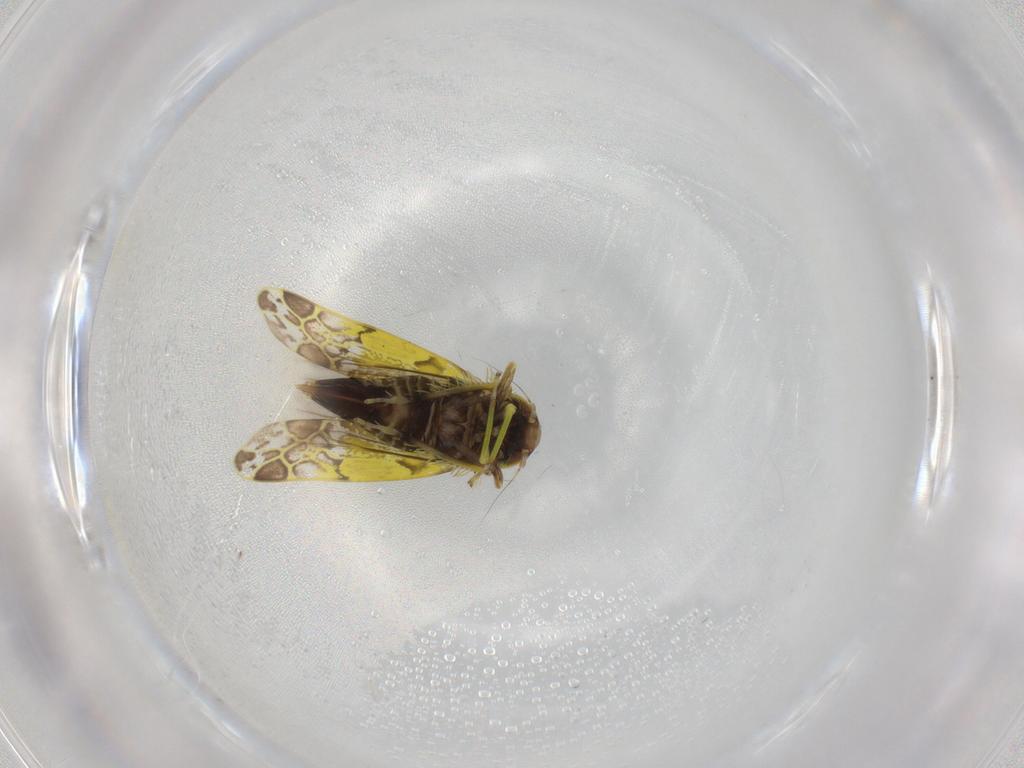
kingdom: Animalia
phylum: Arthropoda
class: Insecta
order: Hemiptera
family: Cicadellidae
